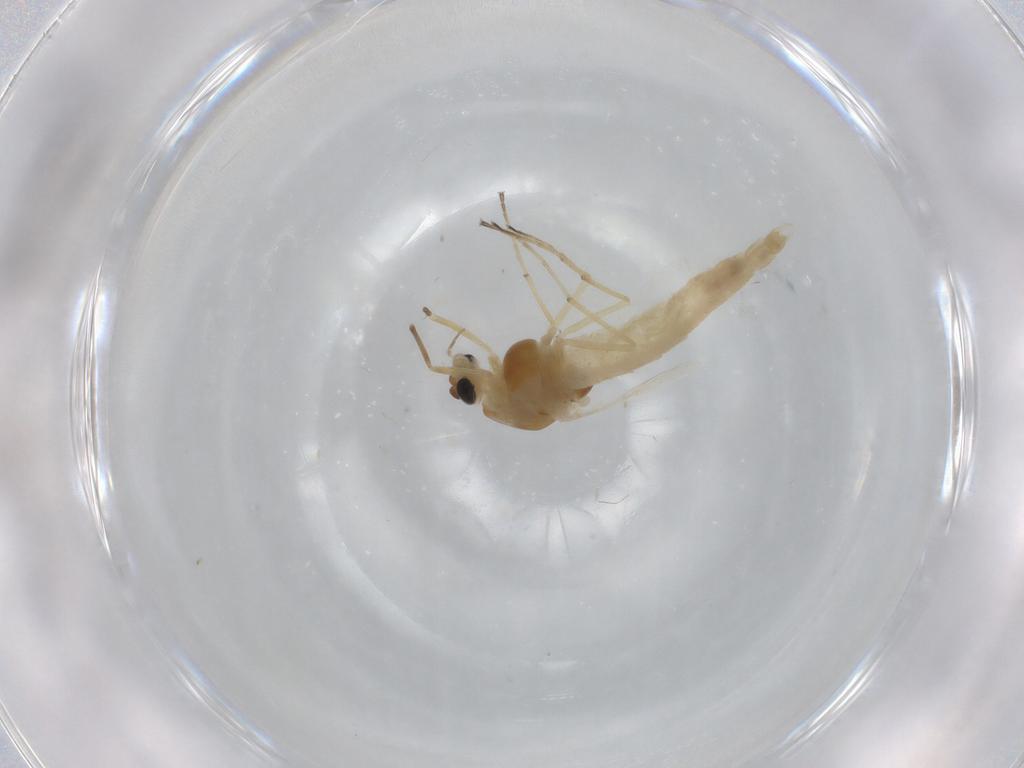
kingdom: Animalia
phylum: Arthropoda
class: Insecta
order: Diptera
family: Chironomidae
